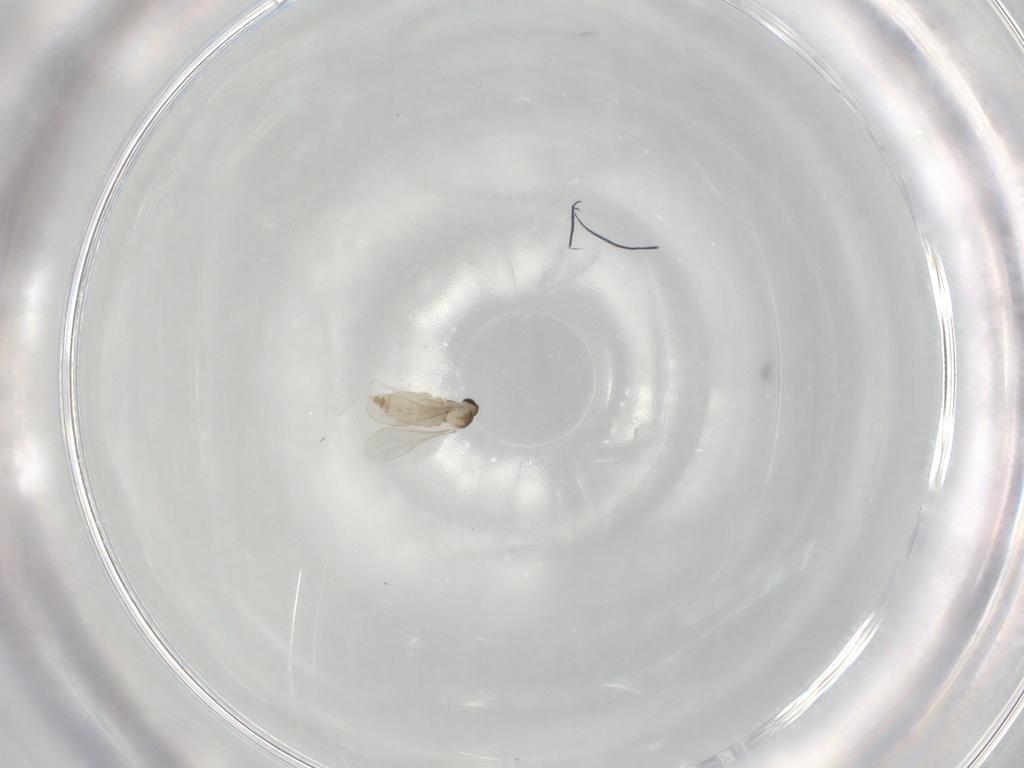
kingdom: Animalia
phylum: Arthropoda
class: Insecta
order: Diptera
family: Psychodidae
